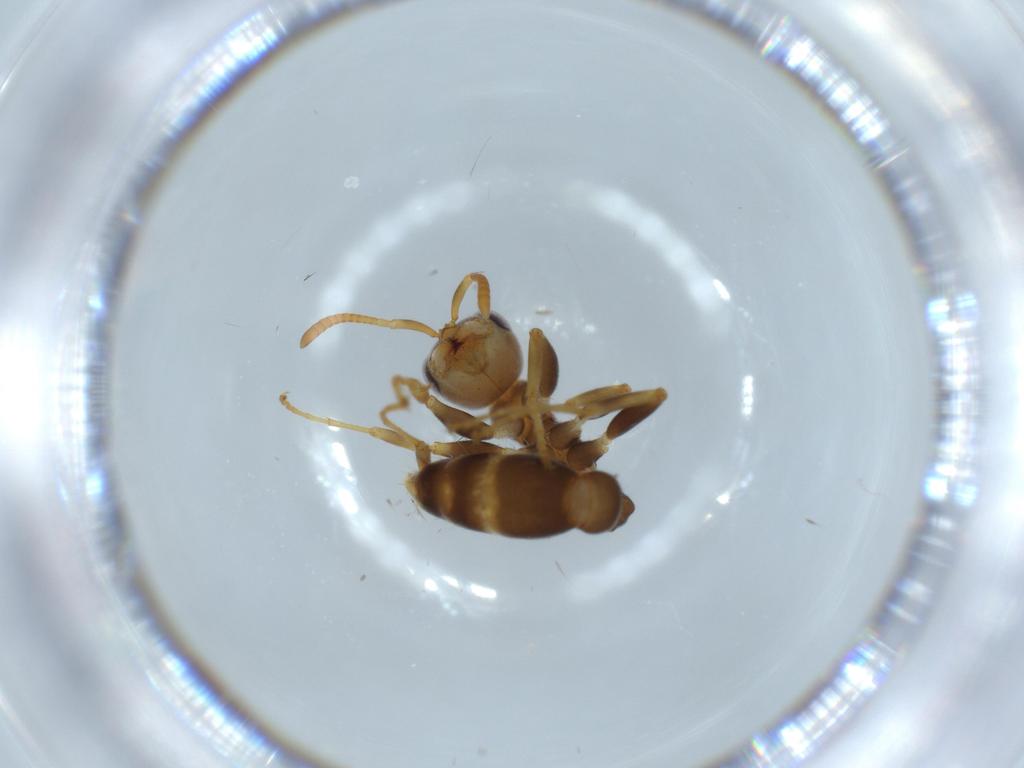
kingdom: Animalia
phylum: Arthropoda
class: Insecta
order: Hymenoptera
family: Formicidae
